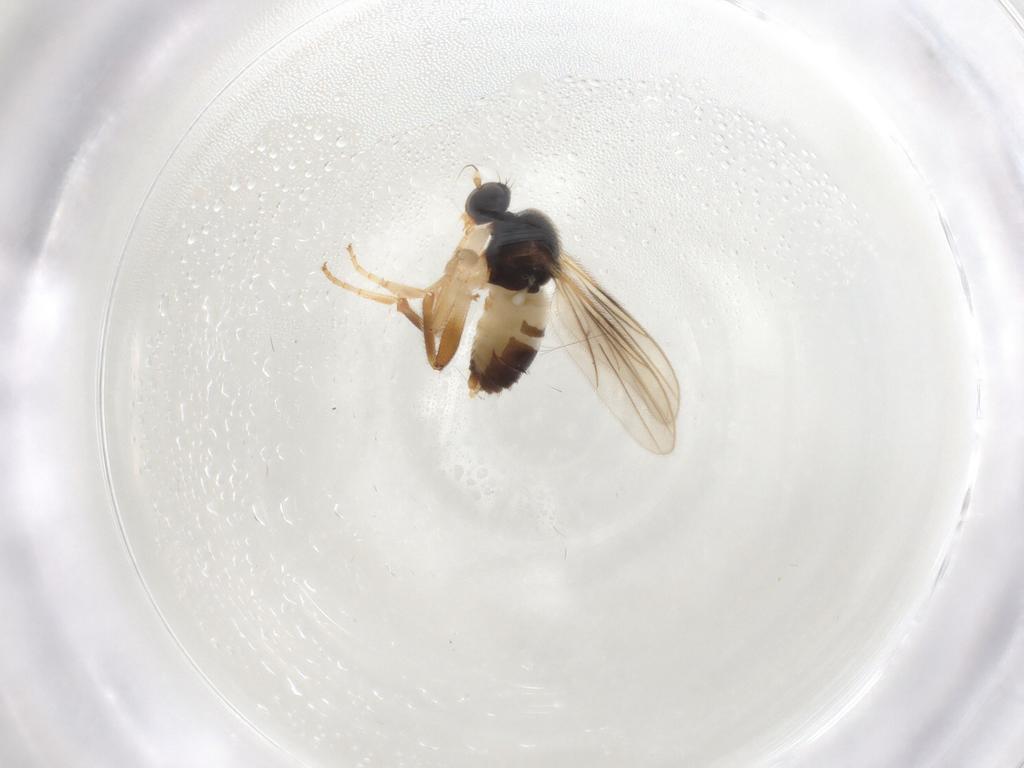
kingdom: Animalia
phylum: Arthropoda
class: Insecta
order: Diptera
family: Hybotidae
